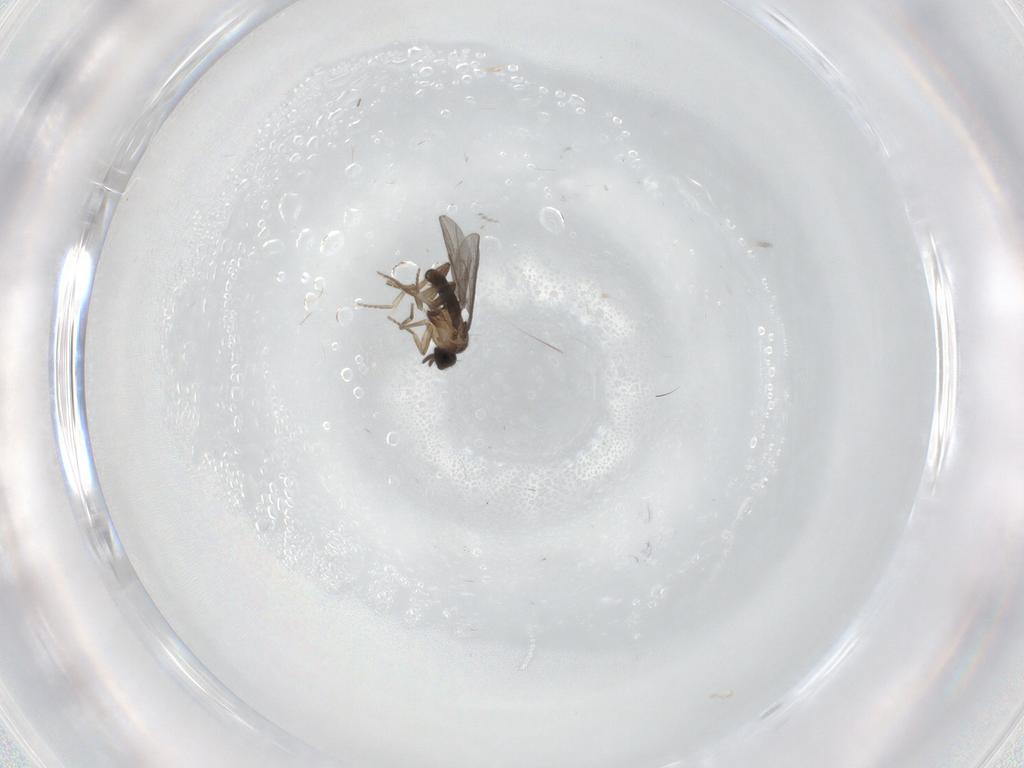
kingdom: Animalia
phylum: Arthropoda
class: Insecta
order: Diptera
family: Cecidomyiidae
